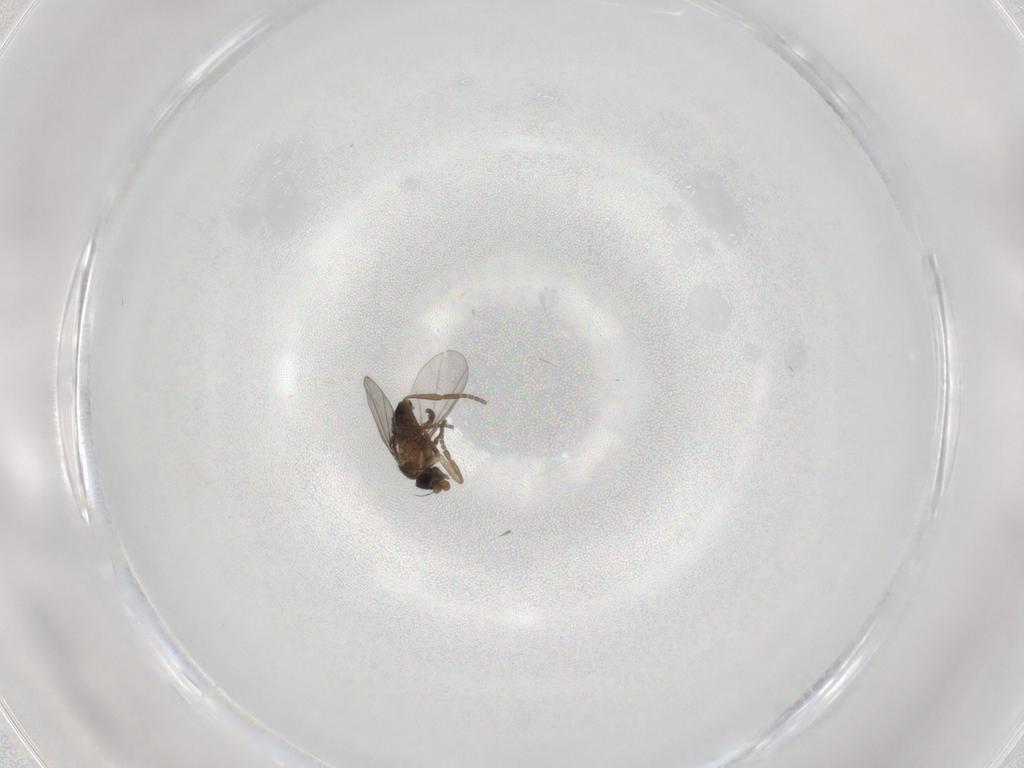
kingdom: Animalia
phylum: Arthropoda
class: Insecta
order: Diptera
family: Phoridae
